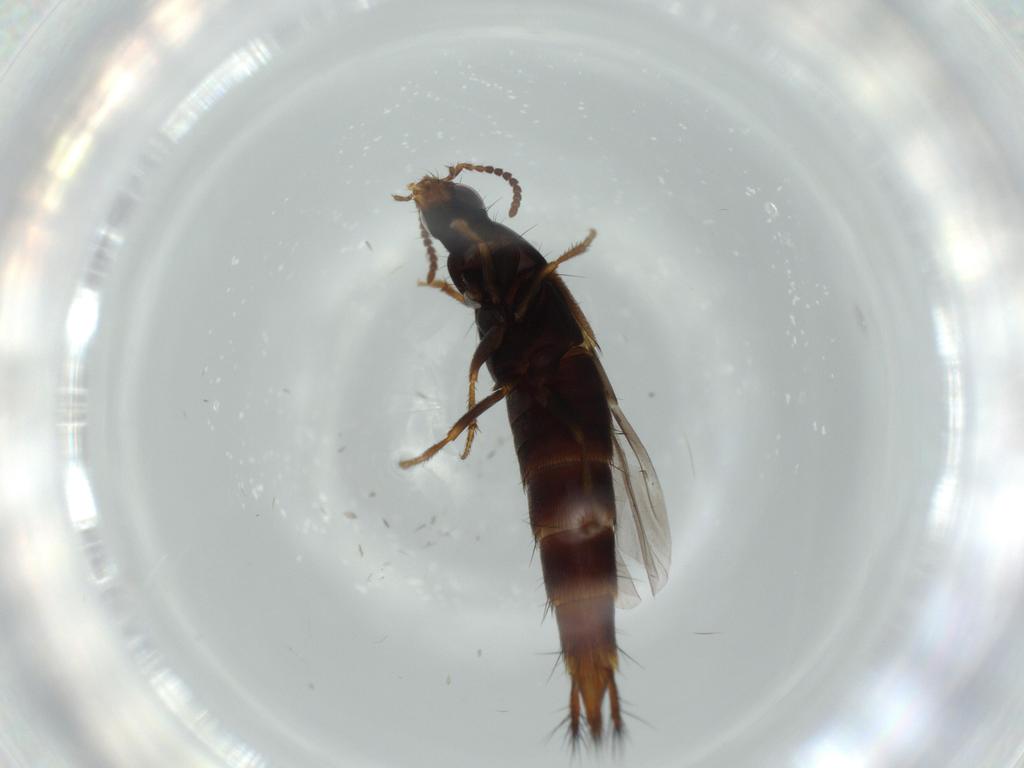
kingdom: Animalia
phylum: Arthropoda
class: Insecta
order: Coleoptera
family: Staphylinidae
